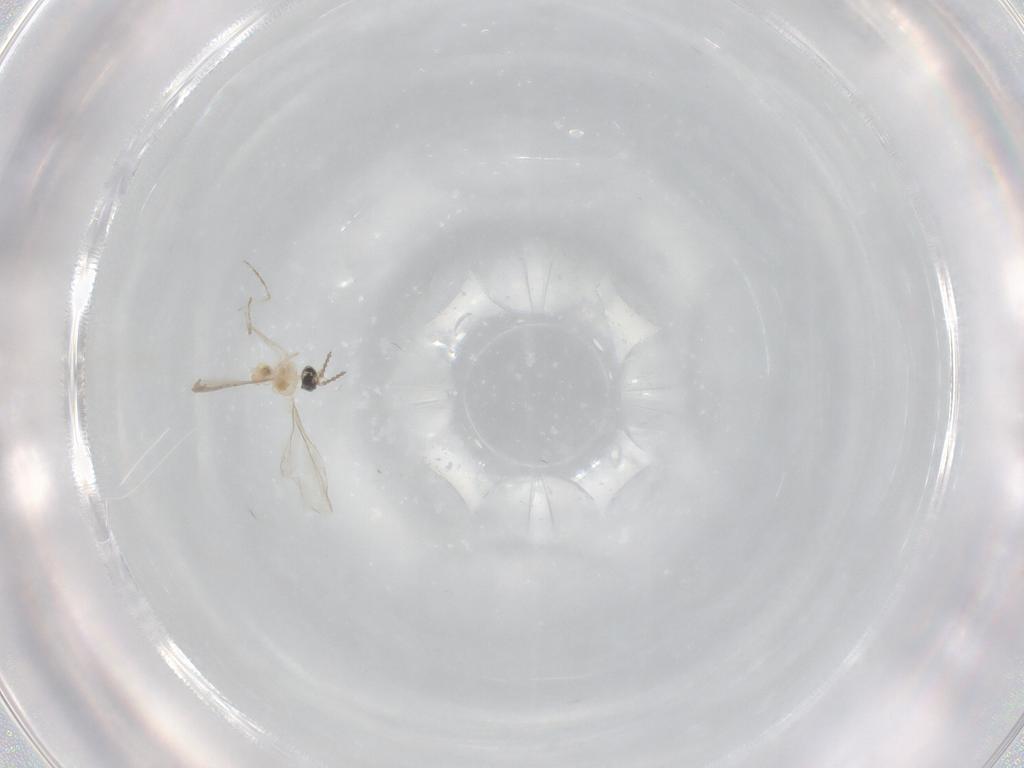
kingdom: Animalia
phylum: Arthropoda
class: Insecta
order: Diptera
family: Cecidomyiidae
